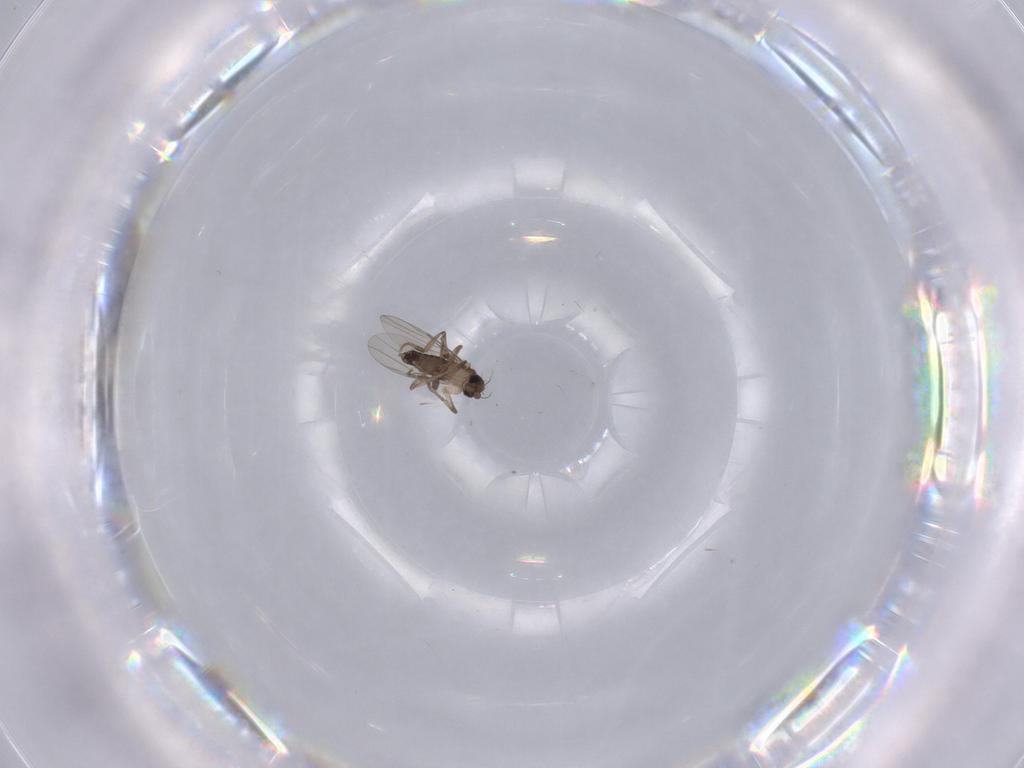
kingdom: Animalia
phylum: Arthropoda
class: Insecta
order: Diptera
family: Phoridae
